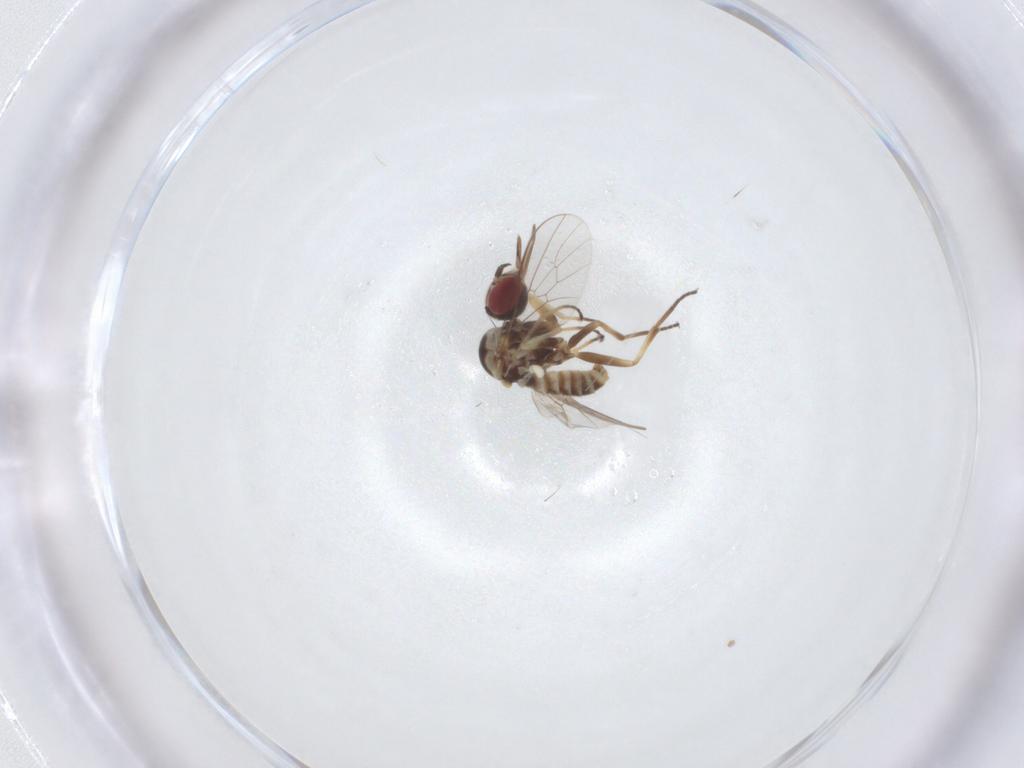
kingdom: Animalia
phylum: Arthropoda
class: Insecta
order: Diptera
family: Bombyliidae
